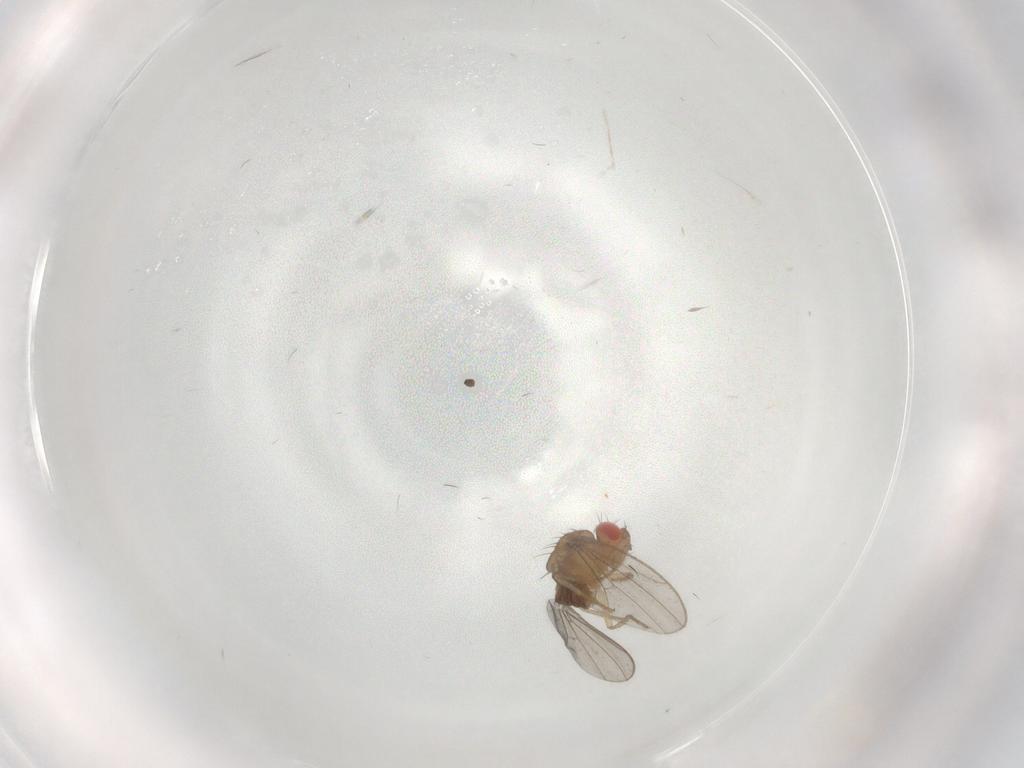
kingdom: Animalia
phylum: Arthropoda
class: Insecta
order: Diptera
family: Drosophilidae
